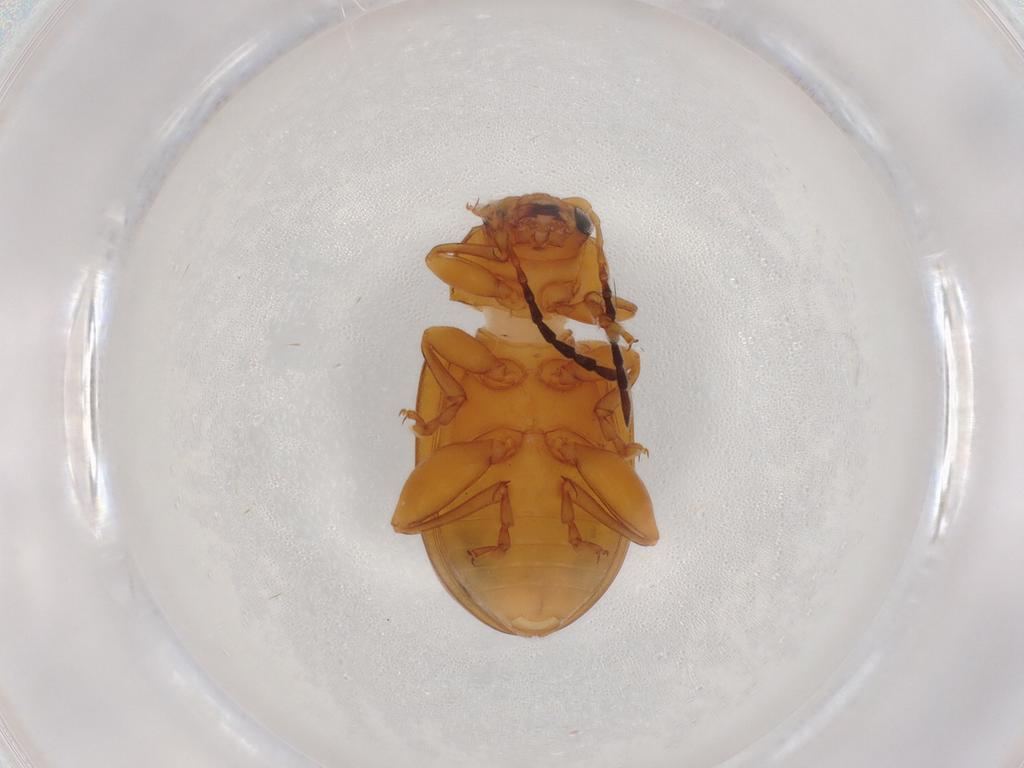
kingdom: Animalia
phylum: Arthropoda
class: Insecta
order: Coleoptera
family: Chrysomelidae
